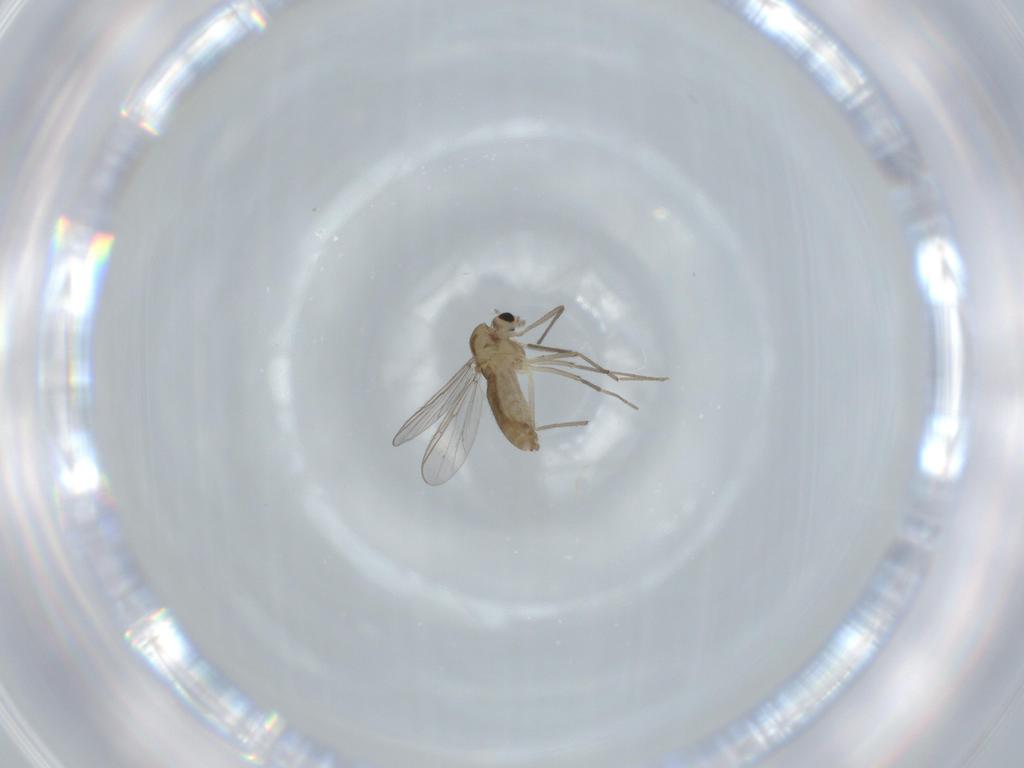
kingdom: Animalia
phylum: Arthropoda
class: Insecta
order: Diptera
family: Chironomidae
